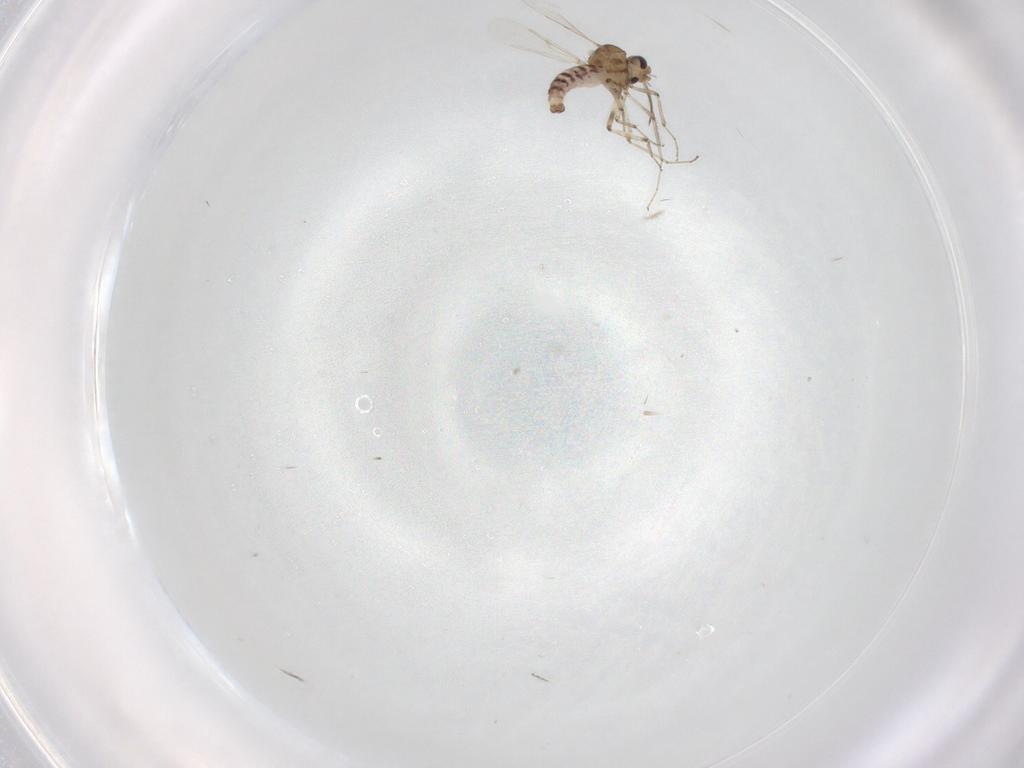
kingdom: Animalia
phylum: Arthropoda
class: Insecta
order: Diptera
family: Ceratopogonidae
